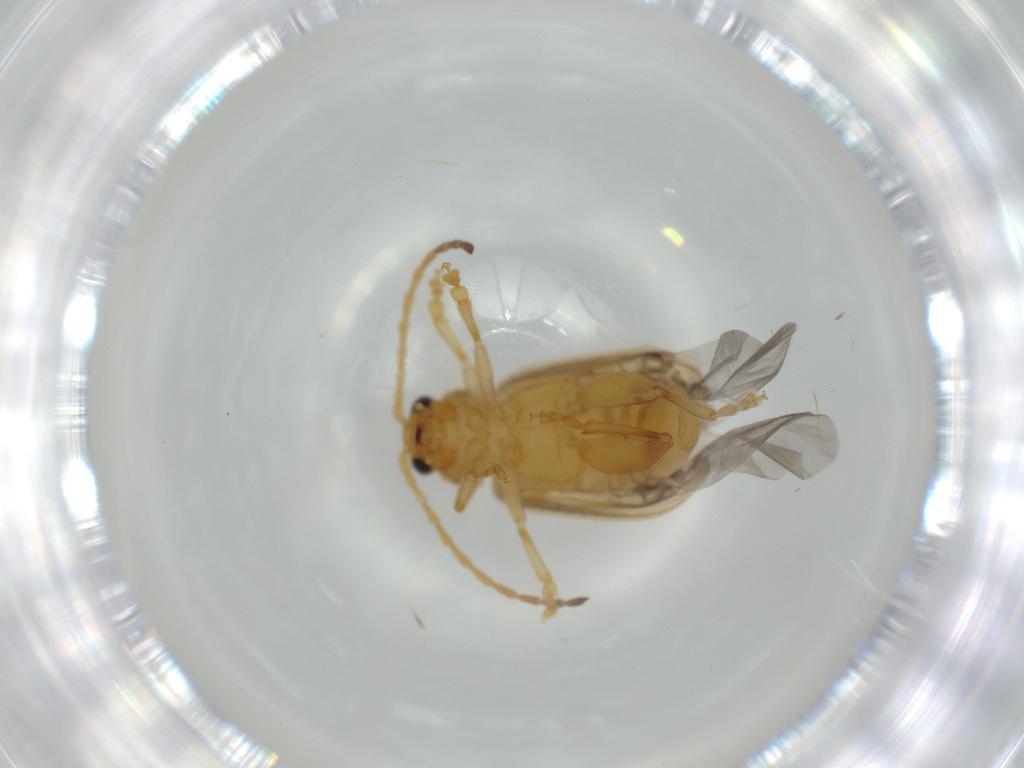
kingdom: Animalia
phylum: Arthropoda
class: Insecta
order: Coleoptera
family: Chrysomelidae
